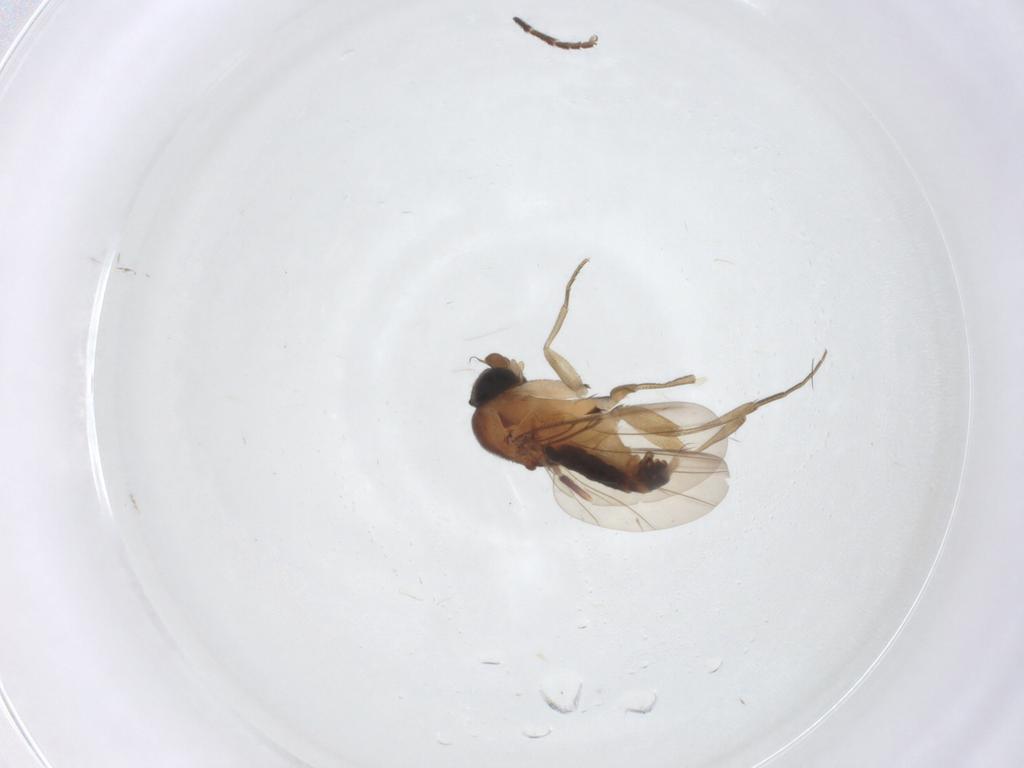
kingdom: Animalia
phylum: Arthropoda
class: Insecta
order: Diptera
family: Phoridae
